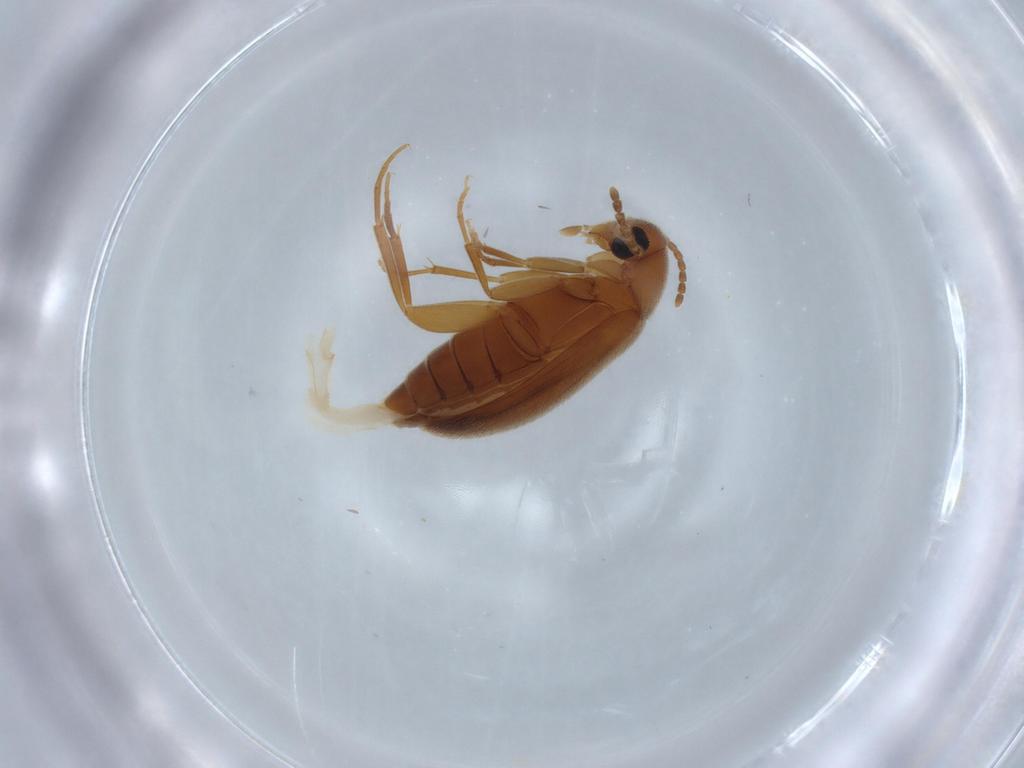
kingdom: Animalia
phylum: Arthropoda
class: Insecta
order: Coleoptera
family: Scraptiidae
